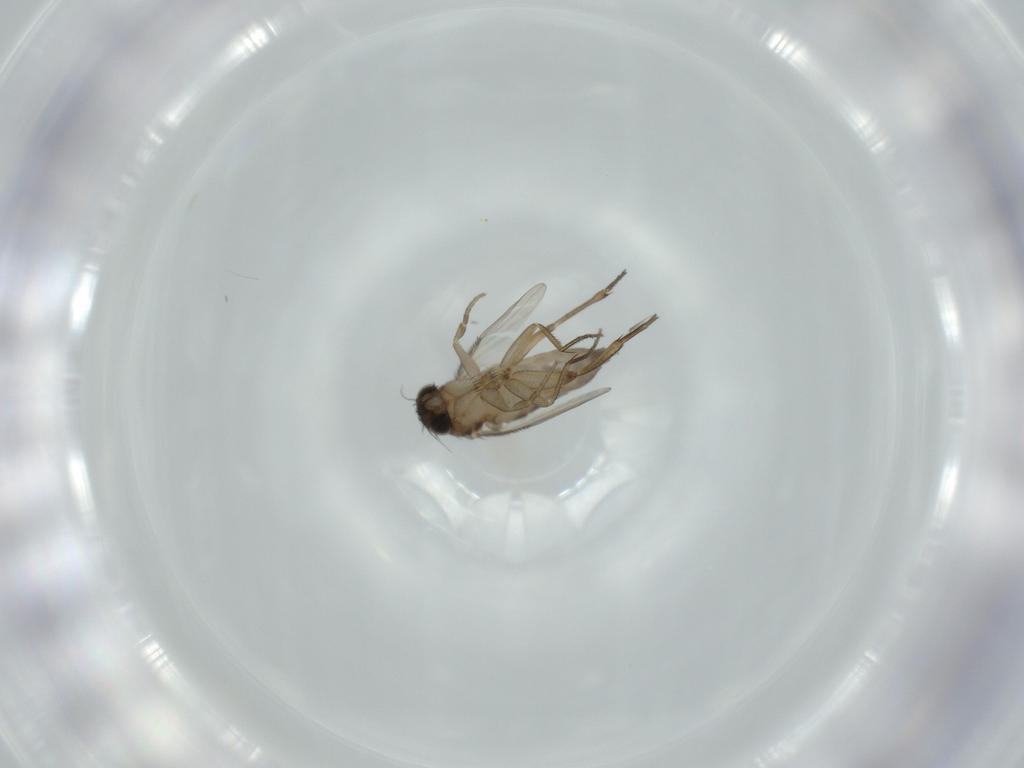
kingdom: Animalia
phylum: Arthropoda
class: Insecta
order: Diptera
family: Phoridae
